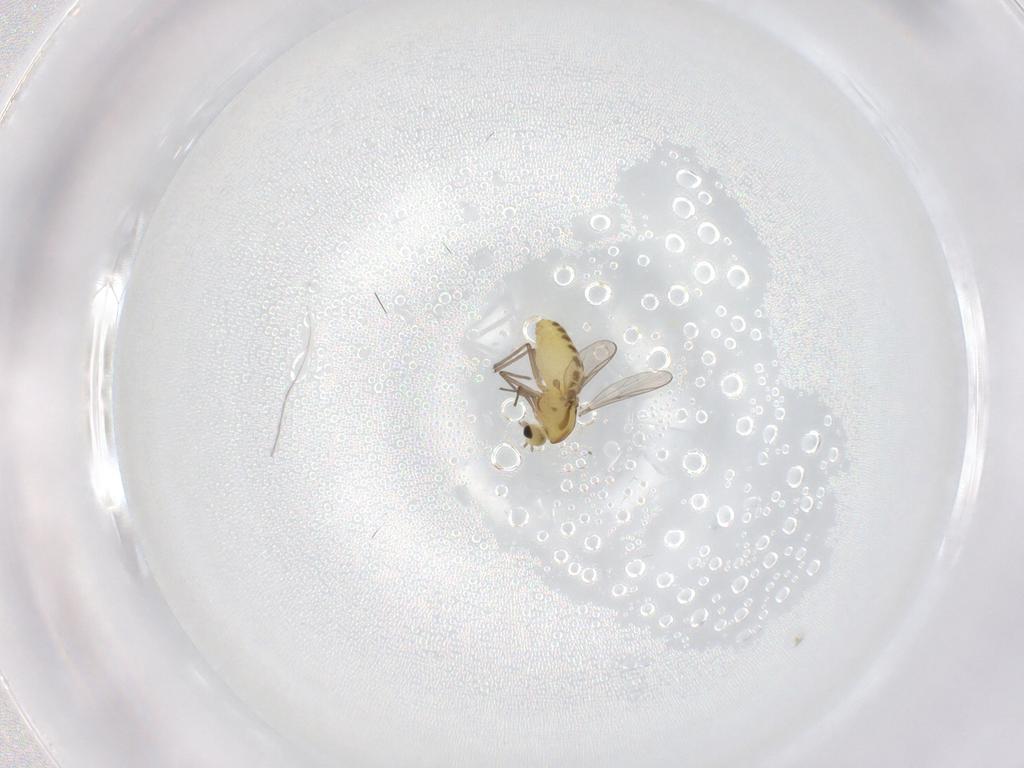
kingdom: Animalia
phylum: Arthropoda
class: Insecta
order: Diptera
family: Chironomidae
